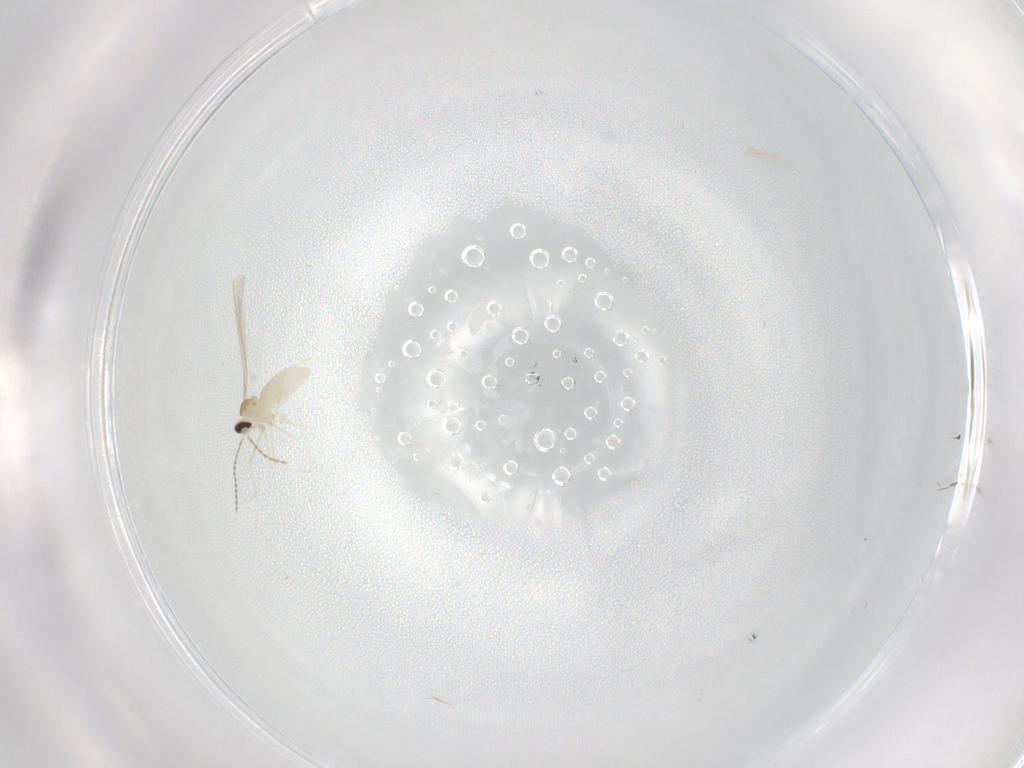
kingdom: Animalia
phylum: Arthropoda
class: Insecta
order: Diptera
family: Cecidomyiidae
